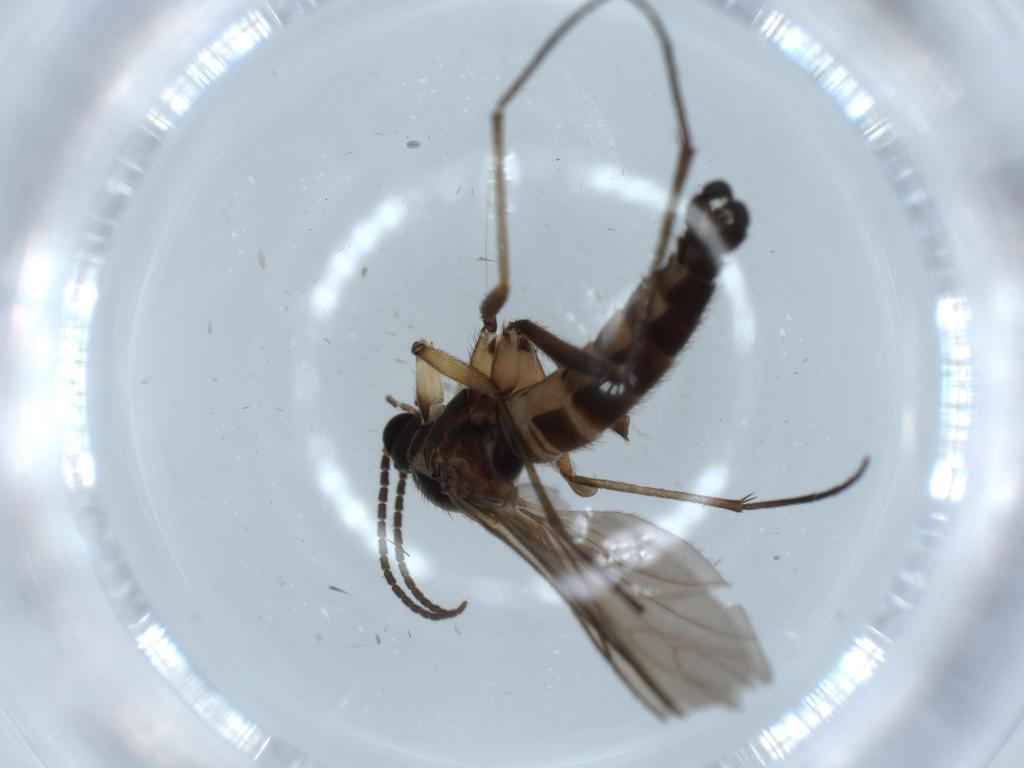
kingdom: Animalia
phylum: Arthropoda
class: Insecta
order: Diptera
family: Sciaridae
